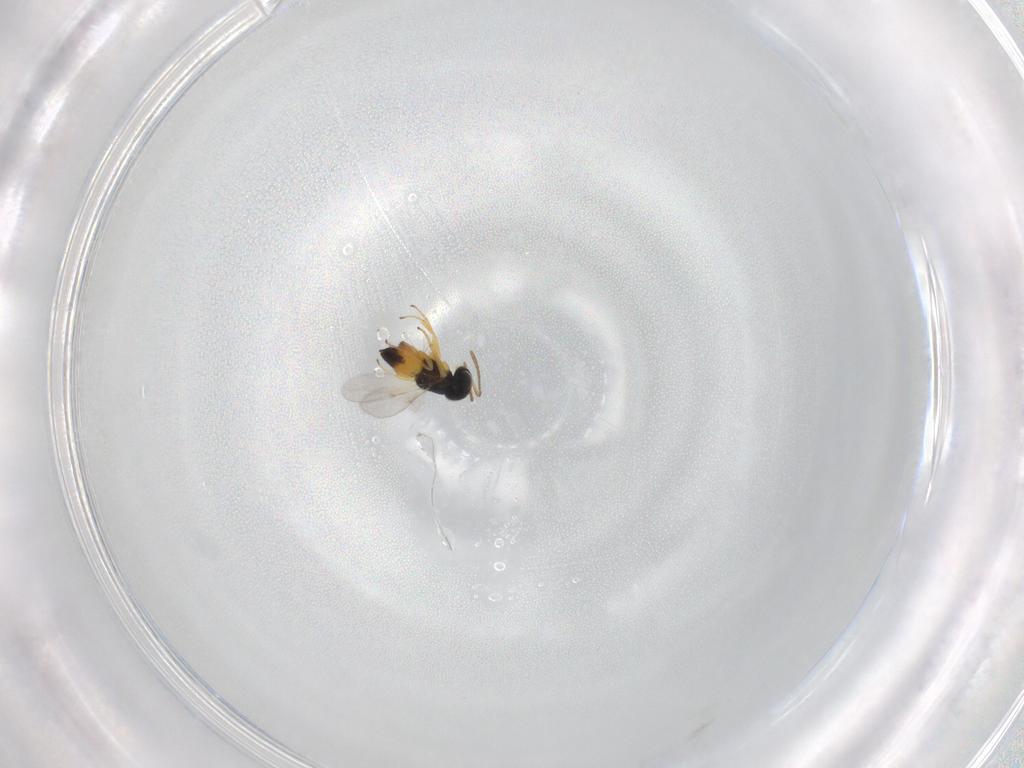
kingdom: Animalia
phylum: Arthropoda
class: Insecta
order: Hymenoptera
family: Encyrtidae
